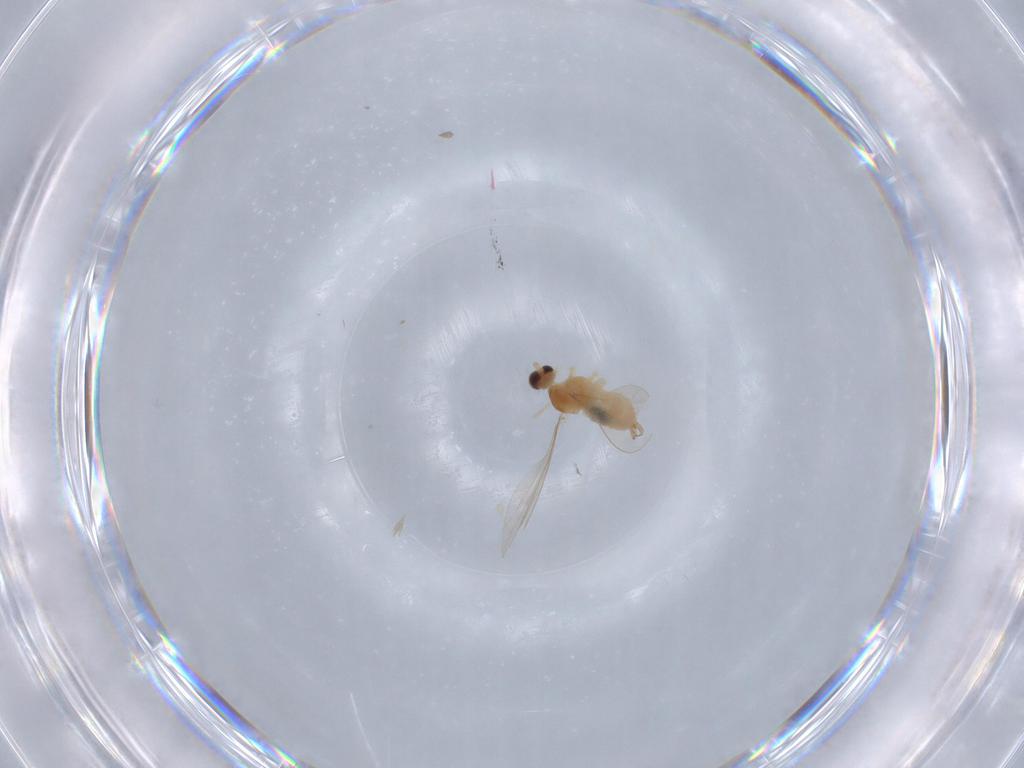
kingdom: Animalia
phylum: Arthropoda
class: Insecta
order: Diptera
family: Cecidomyiidae
